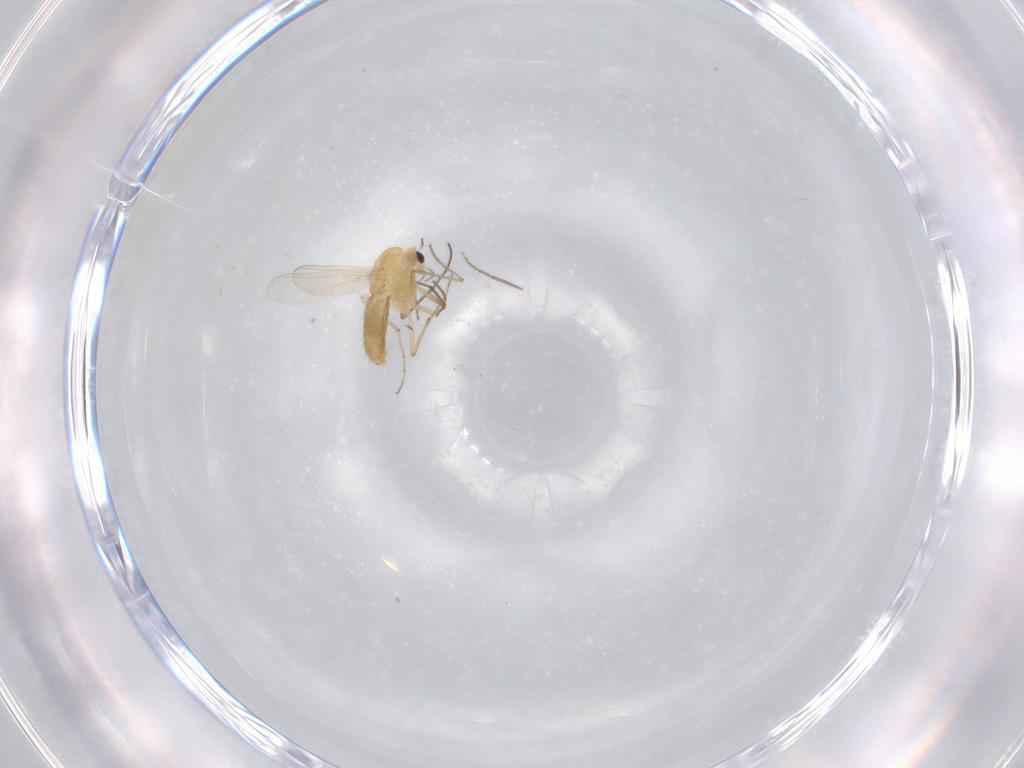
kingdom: Animalia
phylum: Arthropoda
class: Insecta
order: Diptera
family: Chironomidae
